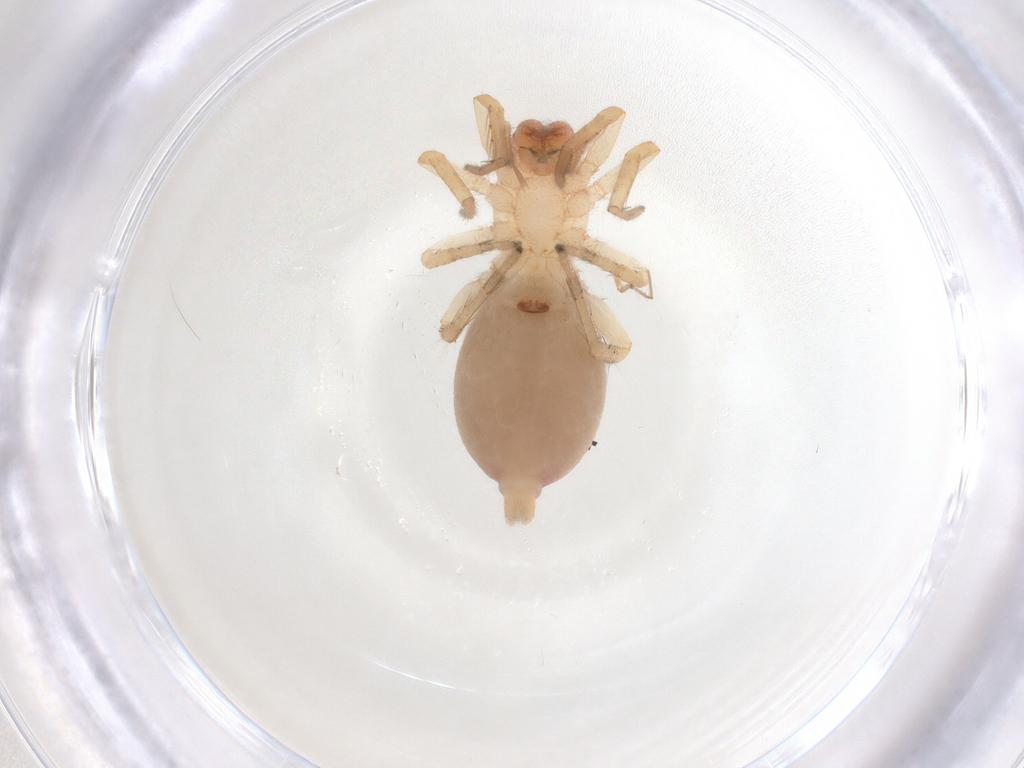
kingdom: Animalia
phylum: Arthropoda
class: Arachnida
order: Araneae
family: Clubionidae
